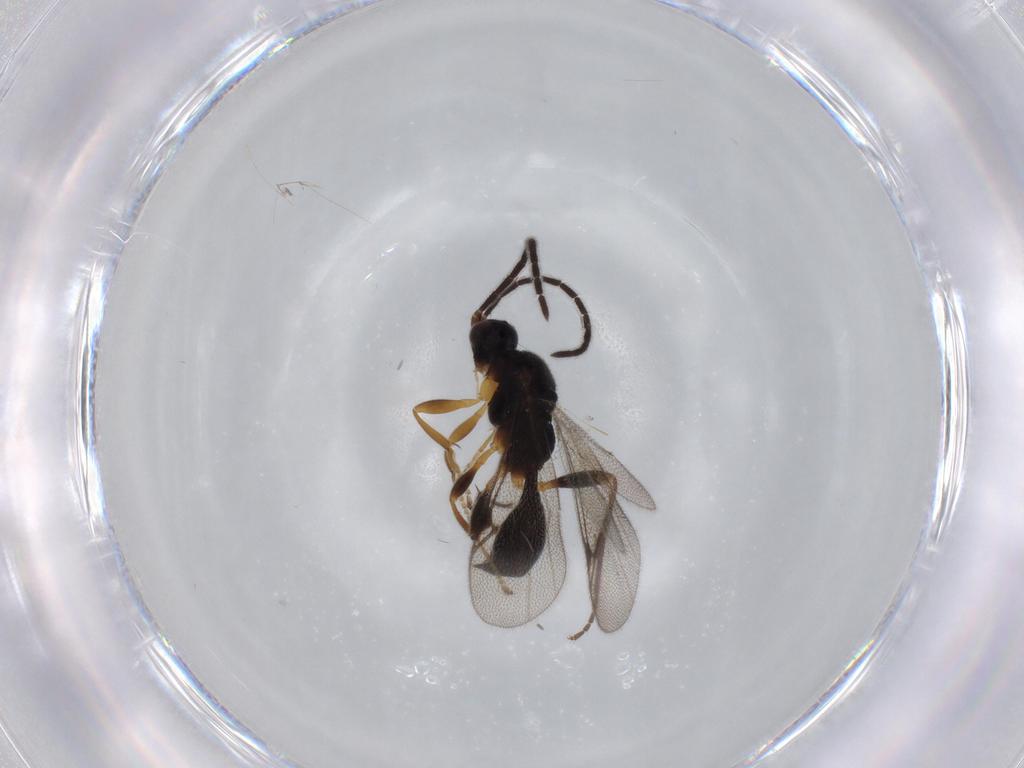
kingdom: Animalia
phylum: Arthropoda
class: Insecta
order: Hymenoptera
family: Proctotrupidae
